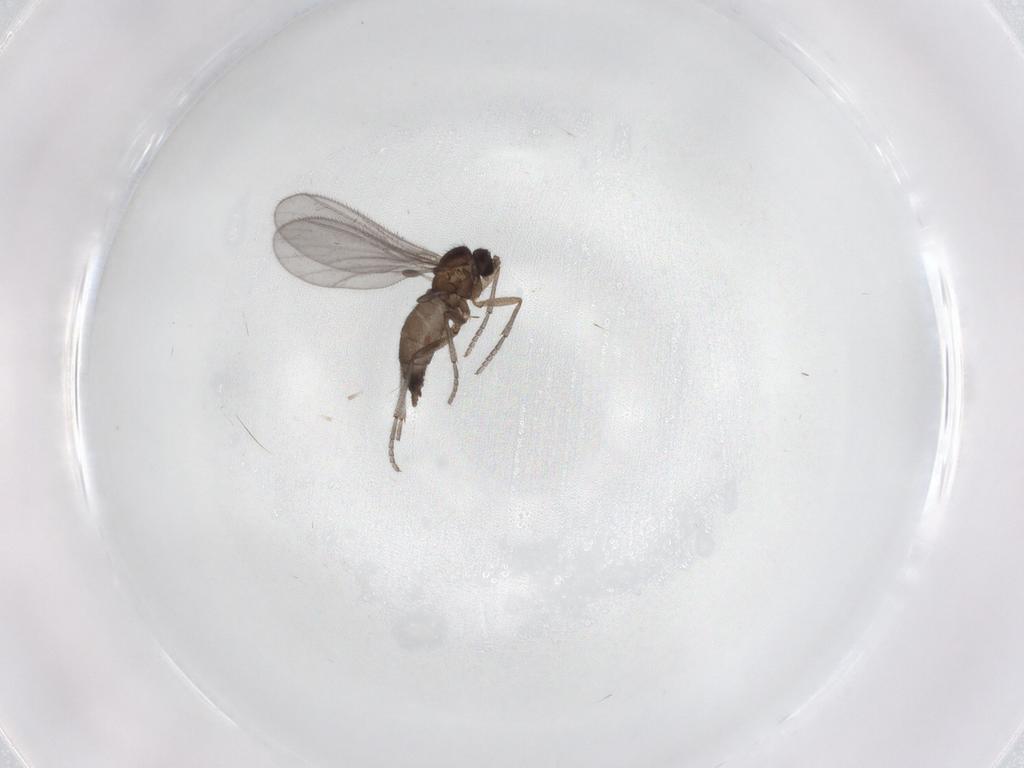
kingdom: Animalia
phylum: Arthropoda
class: Insecta
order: Diptera
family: Sciaridae
